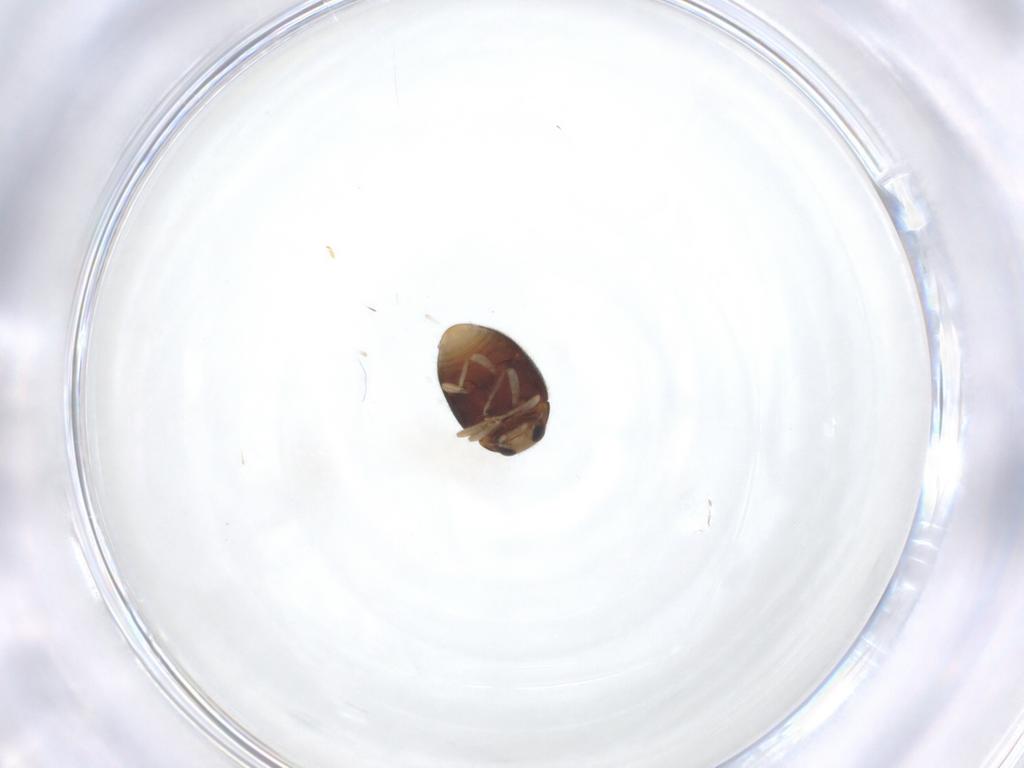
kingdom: Animalia
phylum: Arthropoda
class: Insecta
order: Coleoptera
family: Coccinellidae
